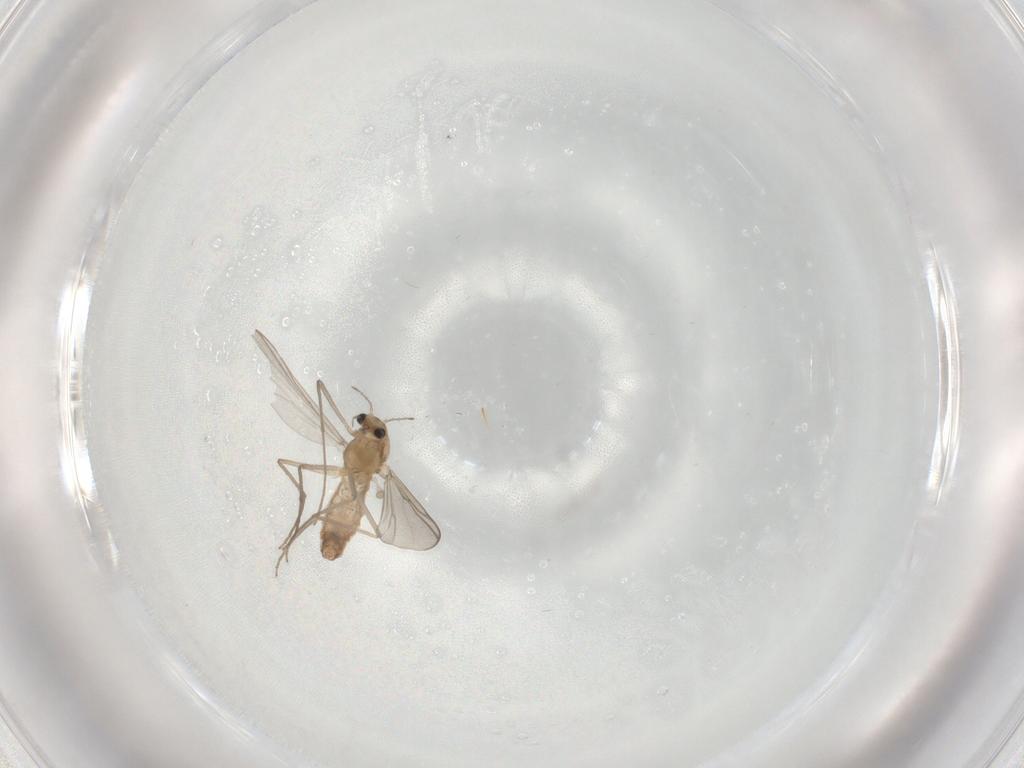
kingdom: Animalia
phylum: Arthropoda
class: Insecta
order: Diptera
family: Chironomidae
